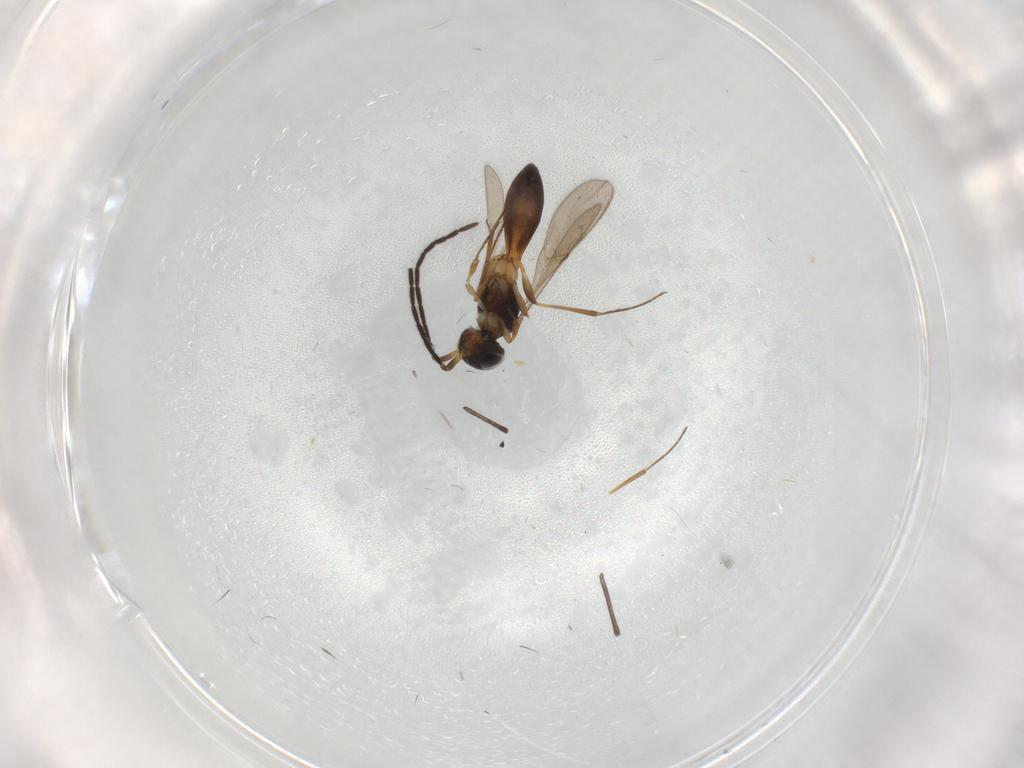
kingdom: Animalia
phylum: Arthropoda
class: Insecta
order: Hymenoptera
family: Scelionidae
